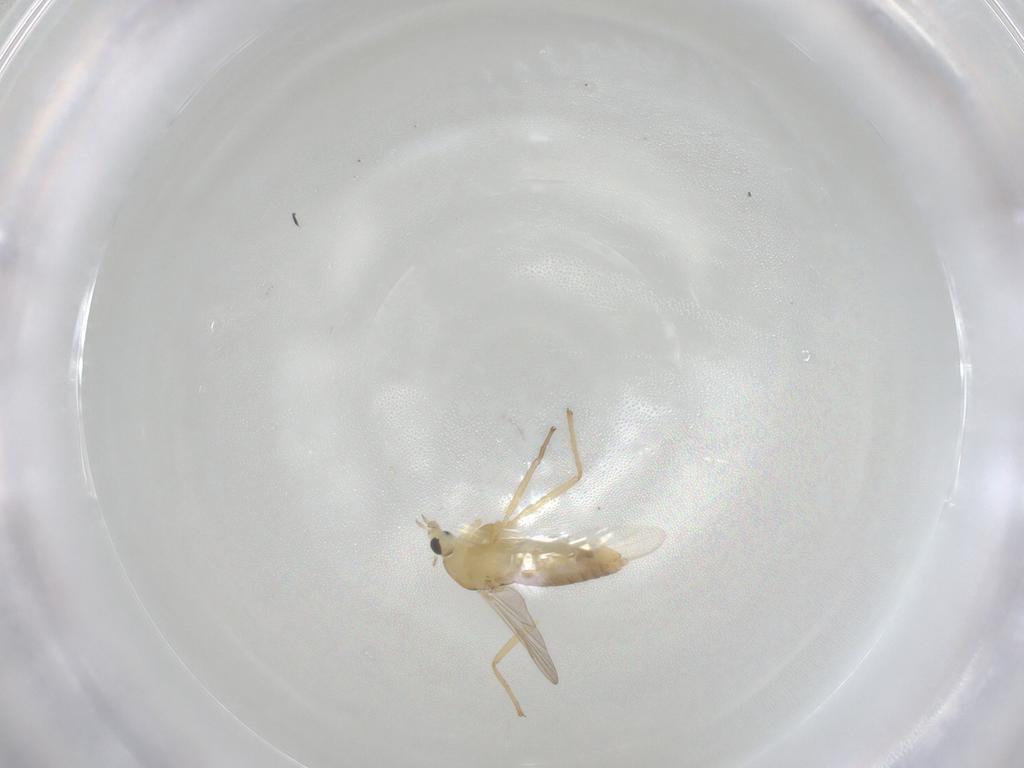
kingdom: Animalia
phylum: Arthropoda
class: Insecta
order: Diptera
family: Chironomidae
